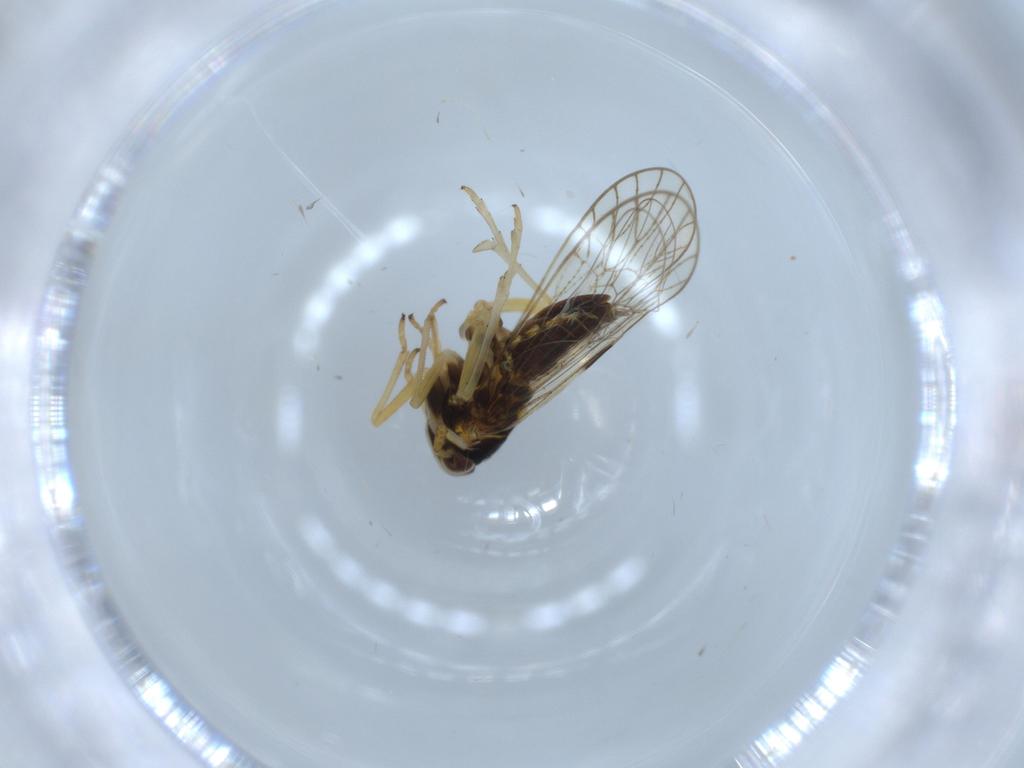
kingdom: Animalia
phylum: Arthropoda
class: Insecta
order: Hemiptera
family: Cicadellidae
